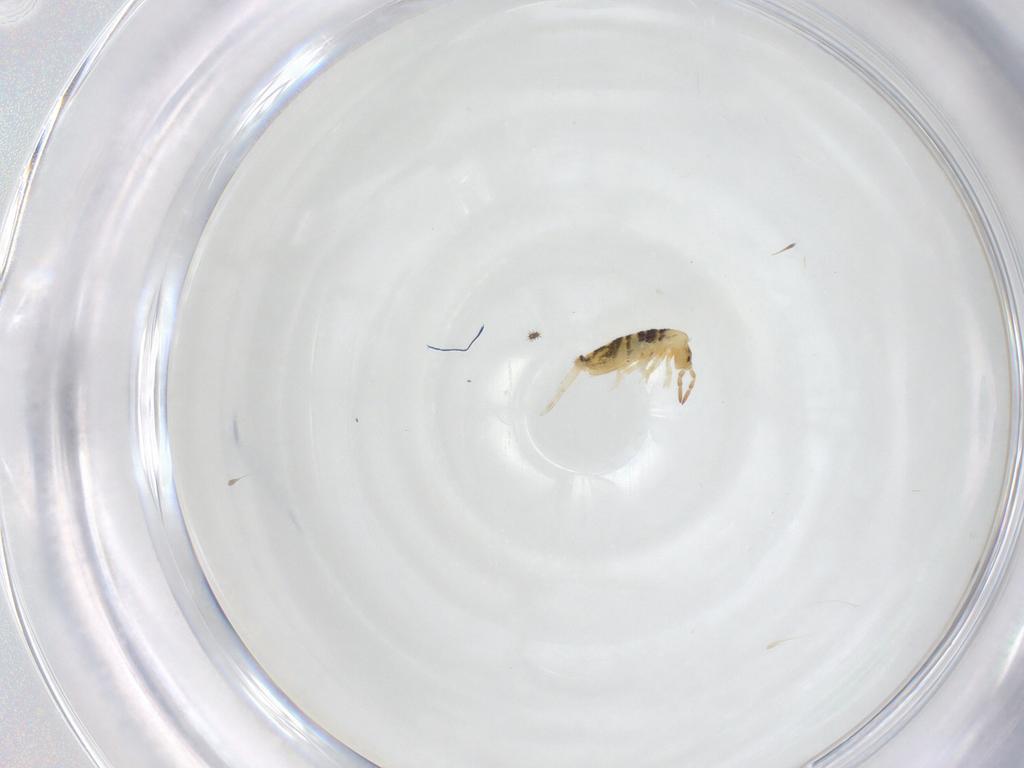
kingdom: Animalia
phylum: Arthropoda
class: Collembola
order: Entomobryomorpha
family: Entomobryidae
